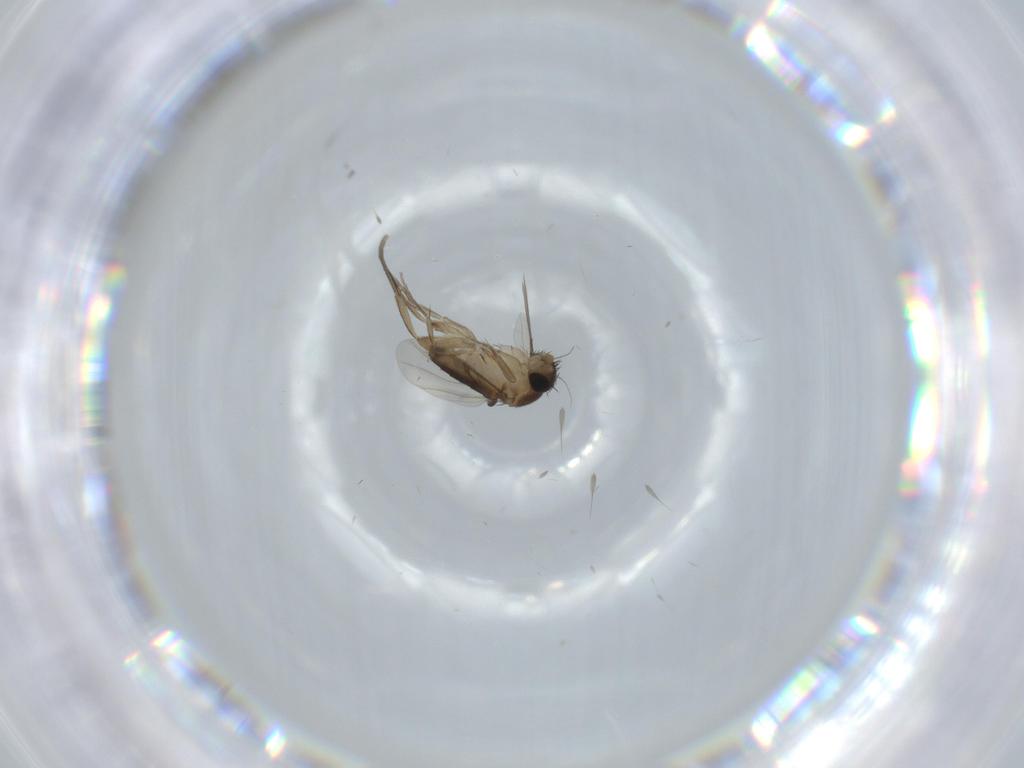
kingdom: Animalia
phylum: Arthropoda
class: Insecta
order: Diptera
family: Phoridae
